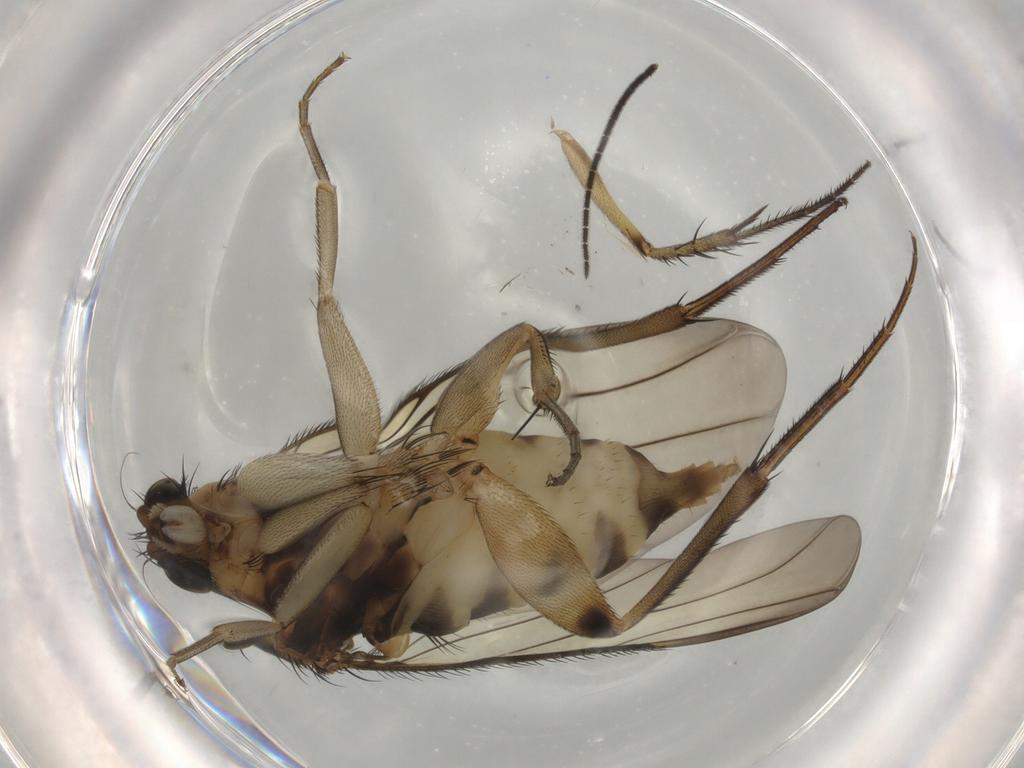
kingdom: Animalia
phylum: Arthropoda
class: Insecta
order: Diptera
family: Phoridae
